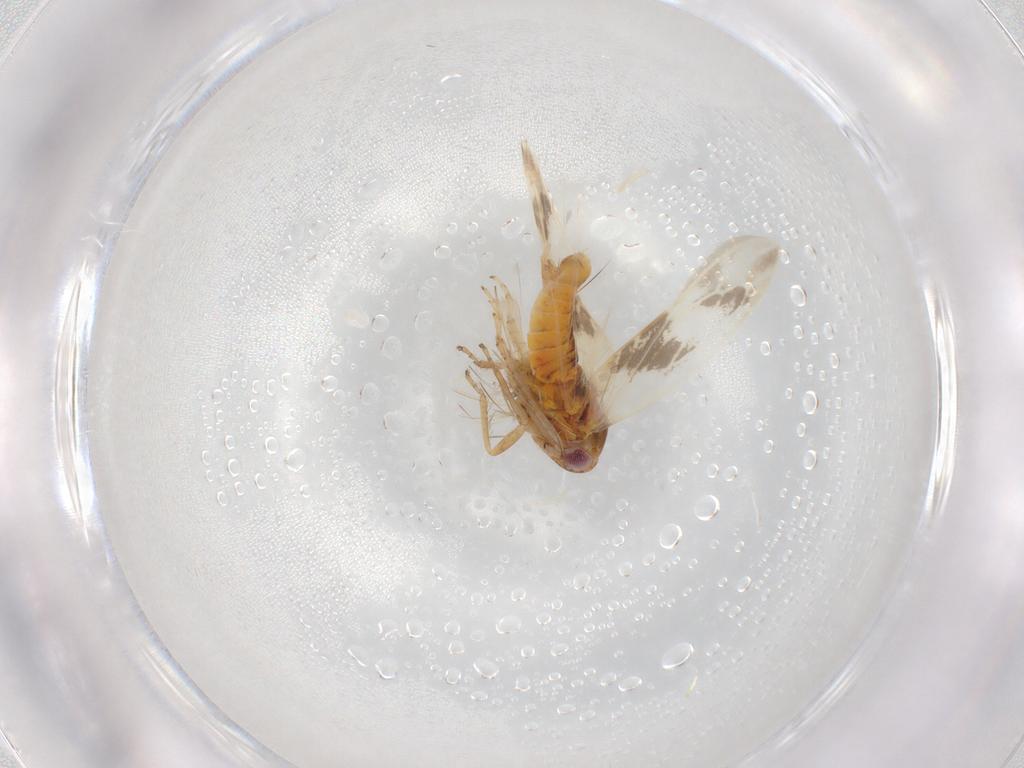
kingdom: Animalia
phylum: Arthropoda
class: Insecta
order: Hemiptera
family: Cicadellidae
